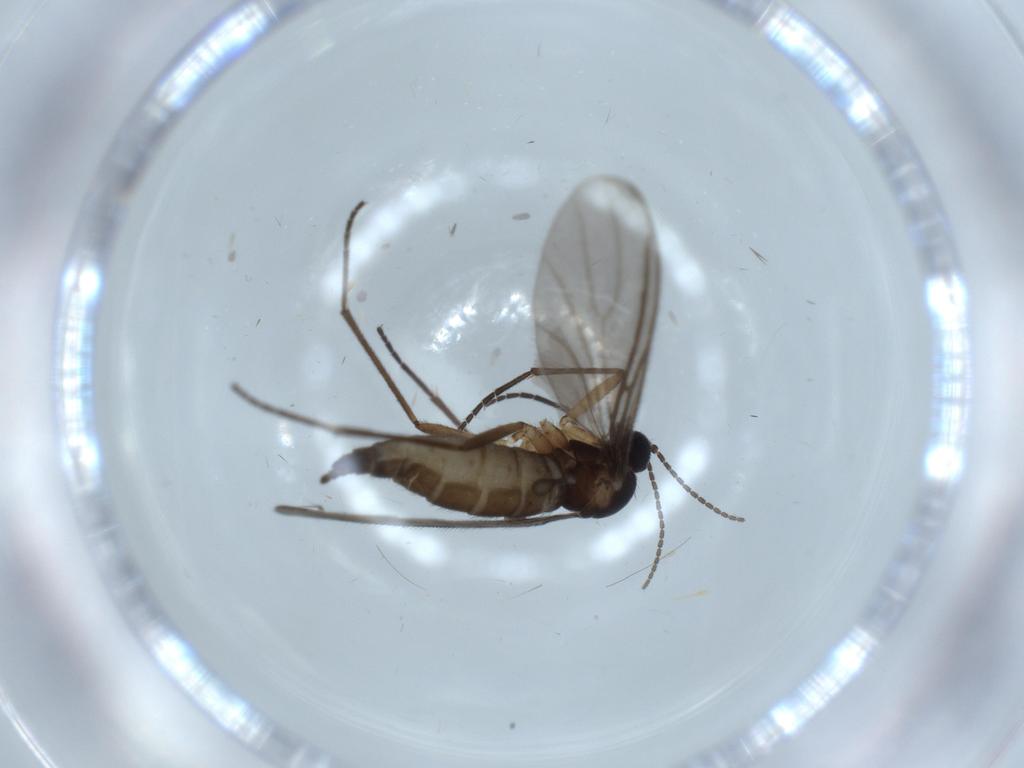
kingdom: Animalia
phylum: Arthropoda
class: Insecta
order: Diptera
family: Sciaridae
